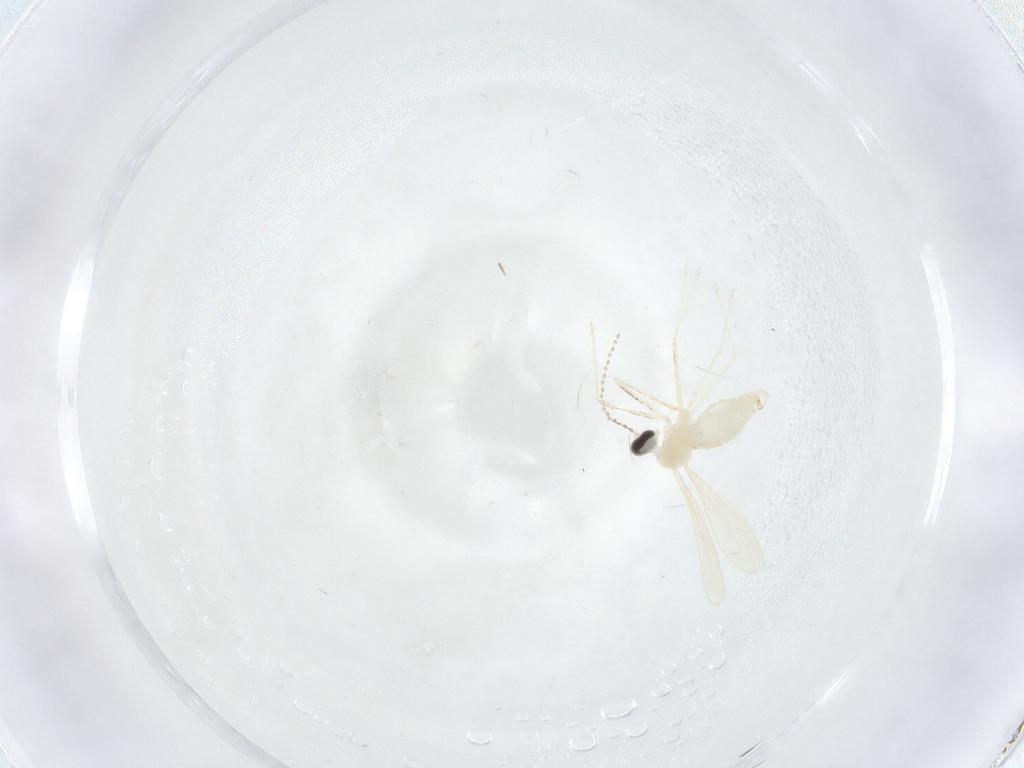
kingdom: Animalia
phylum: Arthropoda
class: Insecta
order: Diptera
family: Cecidomyiidae
